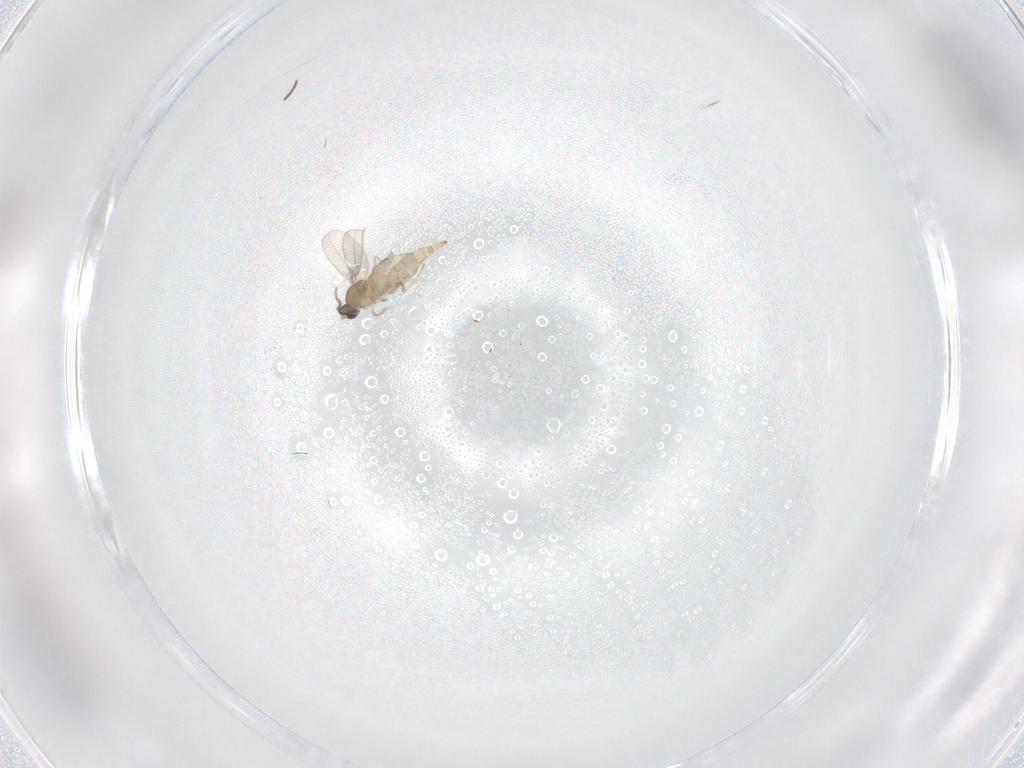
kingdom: Animalia
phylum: Arthropoda
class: Insecta
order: Diptera
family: Cecidomyiidae
